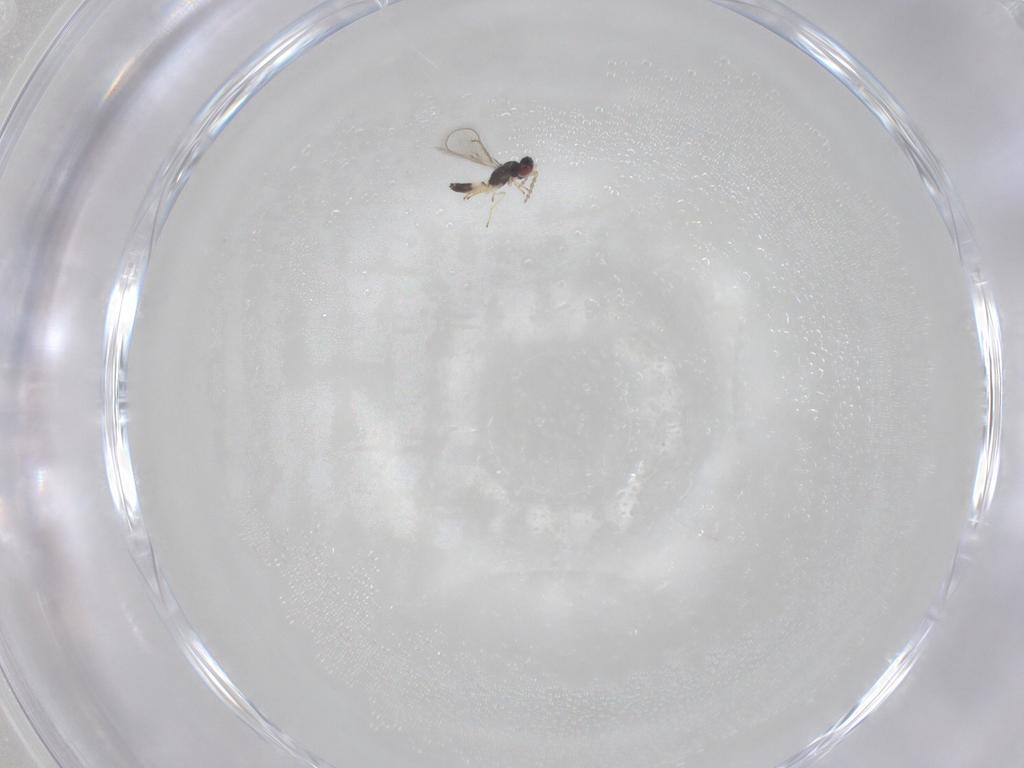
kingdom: Animalia
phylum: Arthropoda
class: Insecta
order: Hymenoptera
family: Eulophidae
